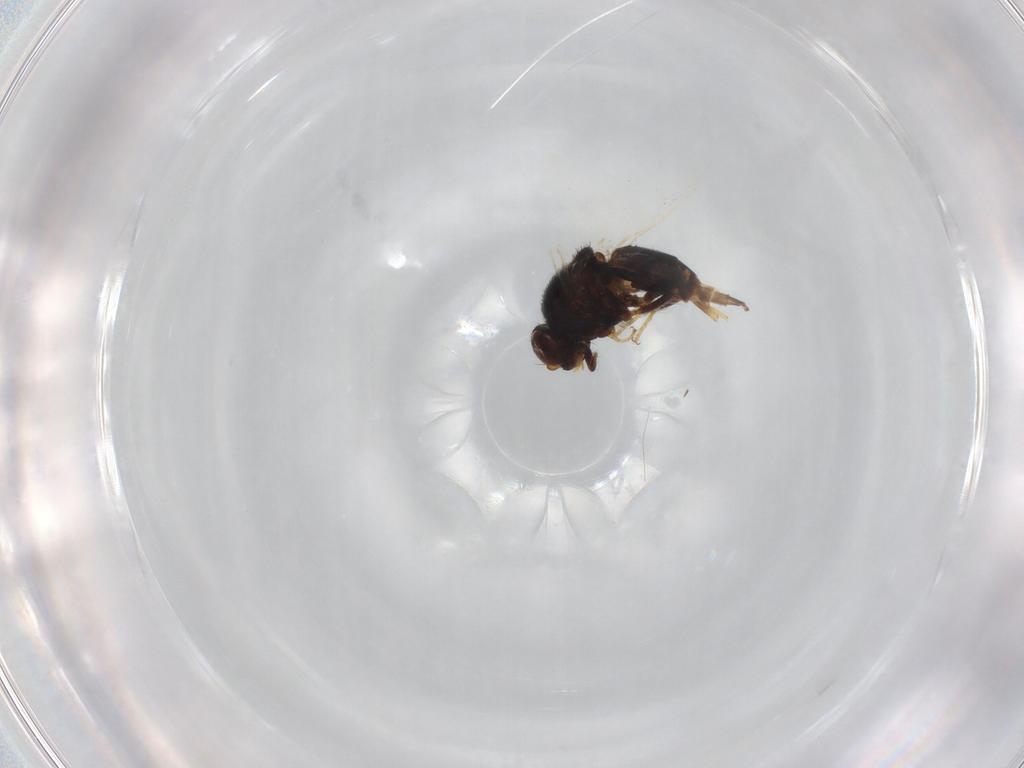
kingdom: Animalia
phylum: Arthropoda
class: Insecta
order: Diptera
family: Chloropidae
